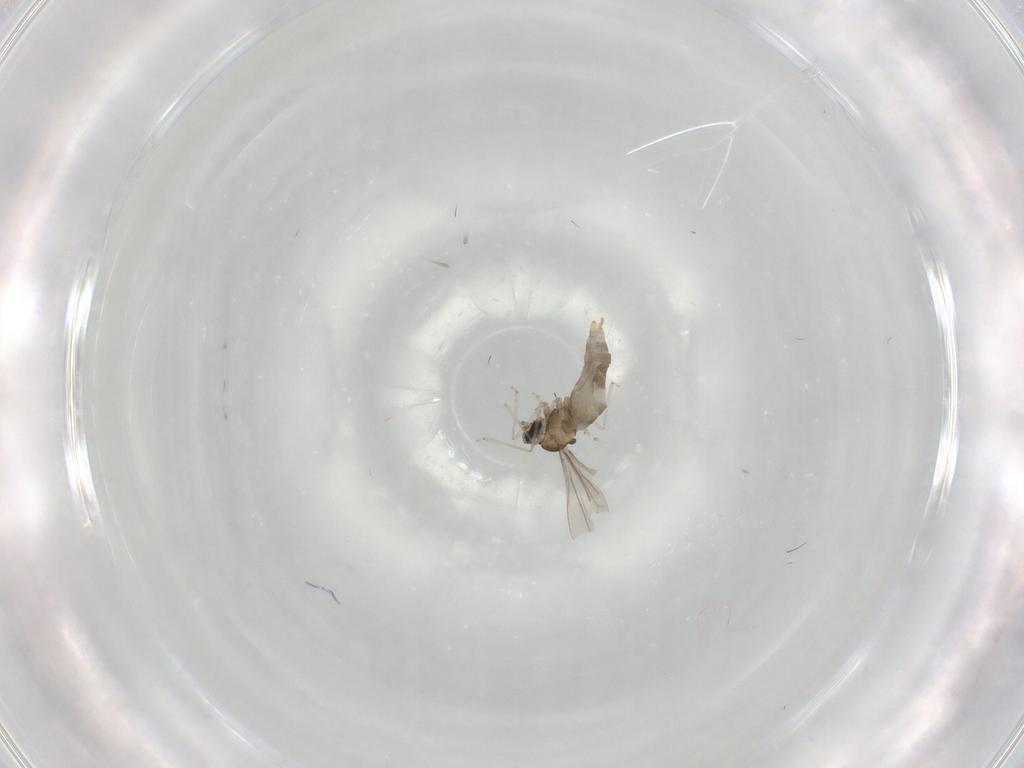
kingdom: Animalia
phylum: Arthropoda
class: Insecta
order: Diptera
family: Cecidomyiidae
